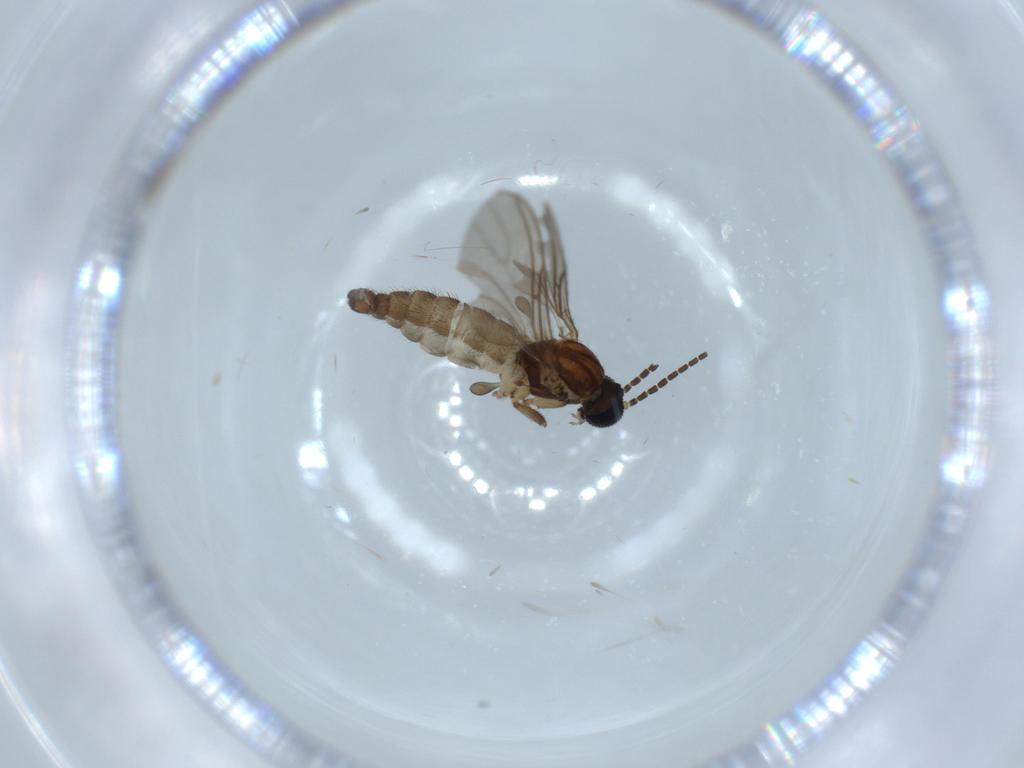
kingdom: Animalia
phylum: Arthropoda
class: Insecta
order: Diptera
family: Sciaridae
